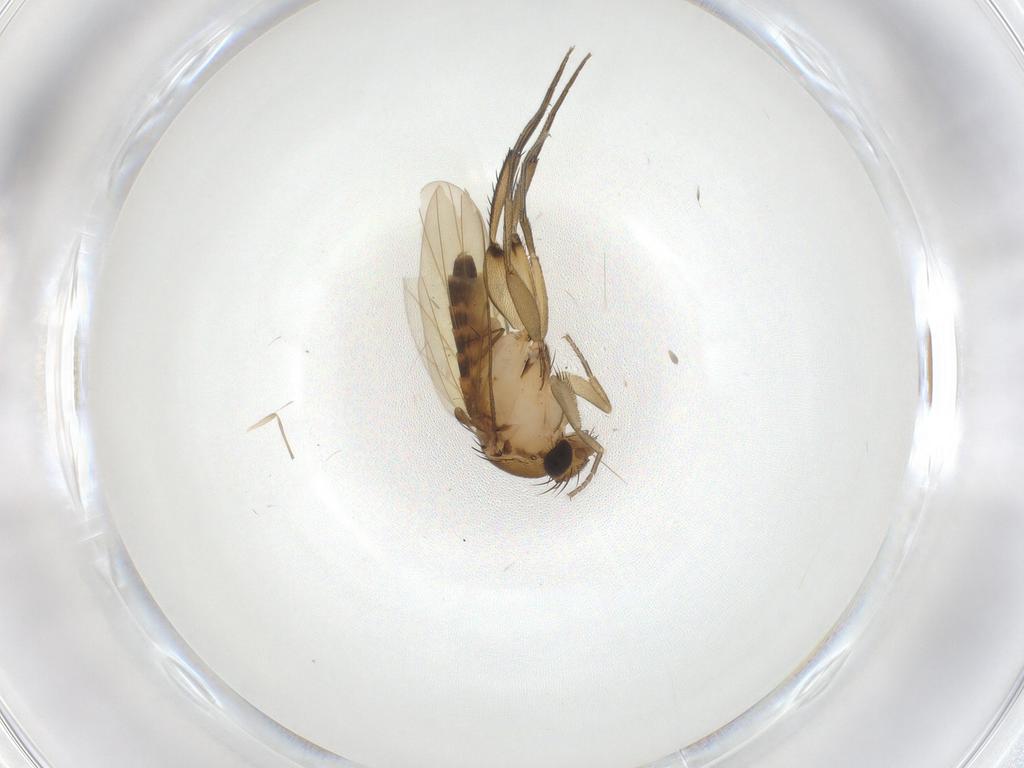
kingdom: Animalia
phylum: Arthropoda
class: Insecta
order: Diptera
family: Phoridae
